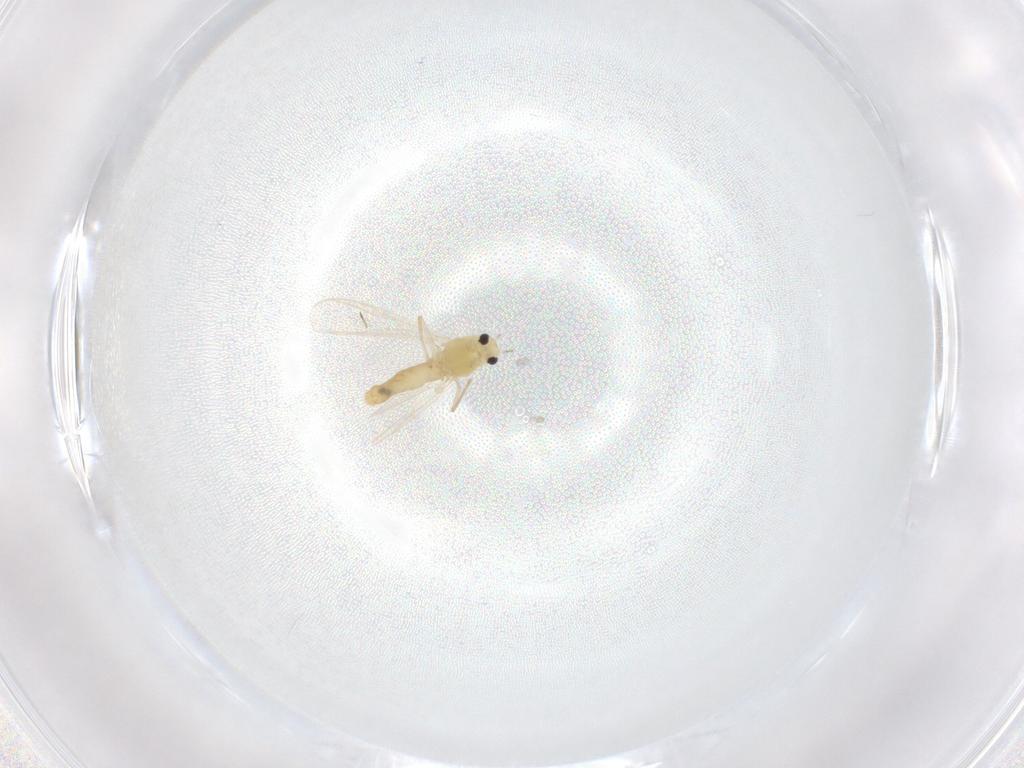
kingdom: Animalia
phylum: Arthropoda
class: Insecta
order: Diptera
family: Chironomidae
